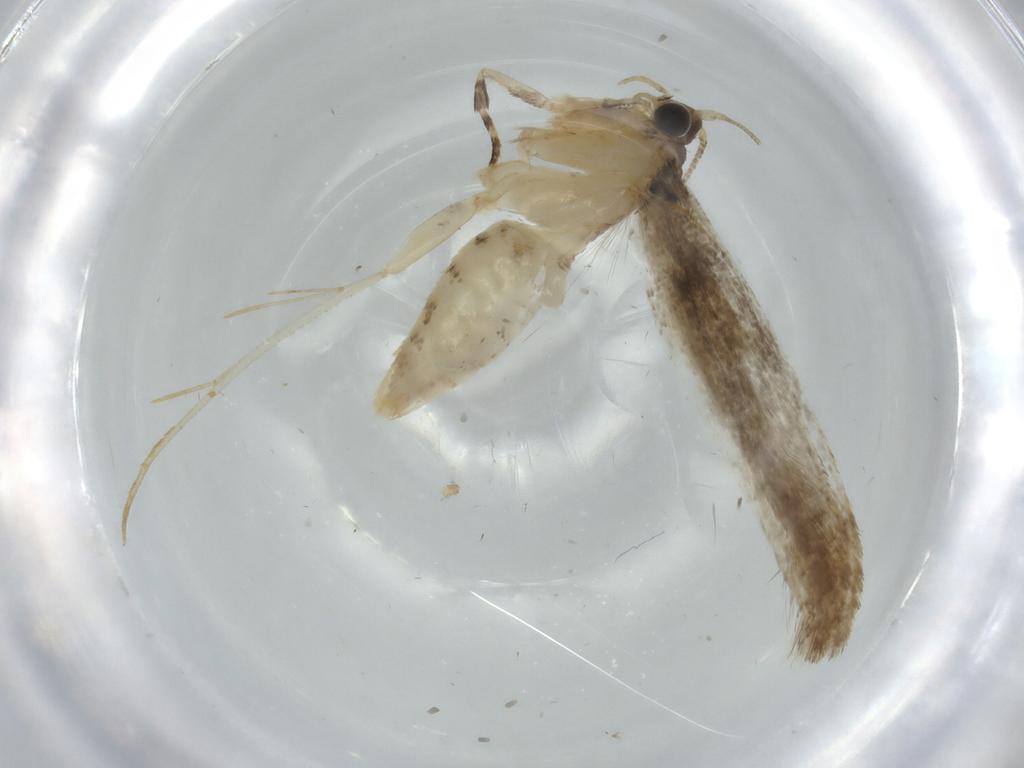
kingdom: Animalia
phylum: Arthropoda
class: Insecta
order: Lepidoptera
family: Tineidae
